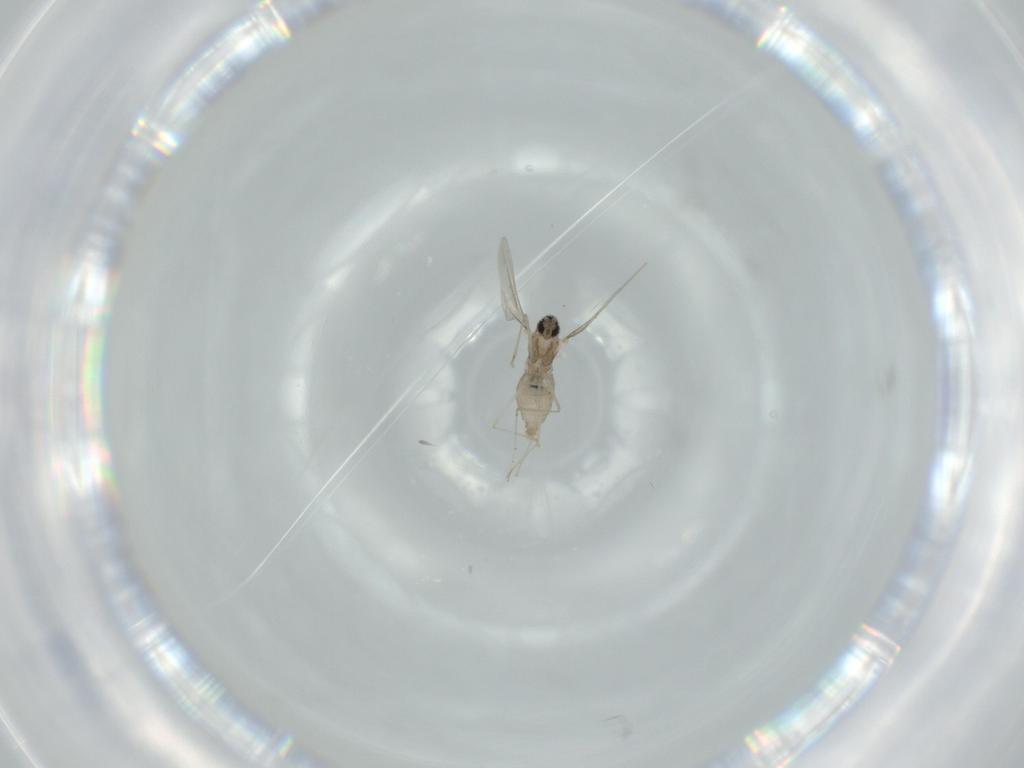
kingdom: Animalia
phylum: Arthropoda
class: Insecta
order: Diptera
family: Cecidomyiidae
